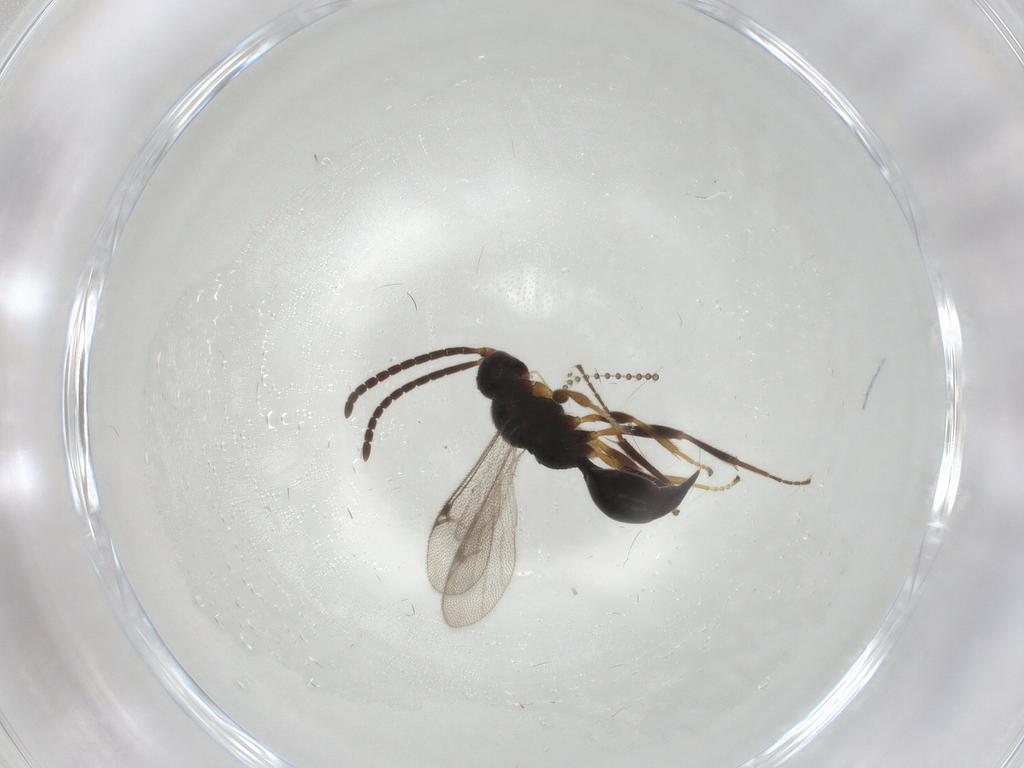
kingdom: Animalia
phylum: Arthropoda
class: Insecta
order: Hymenoptera
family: Proctotrupidae
